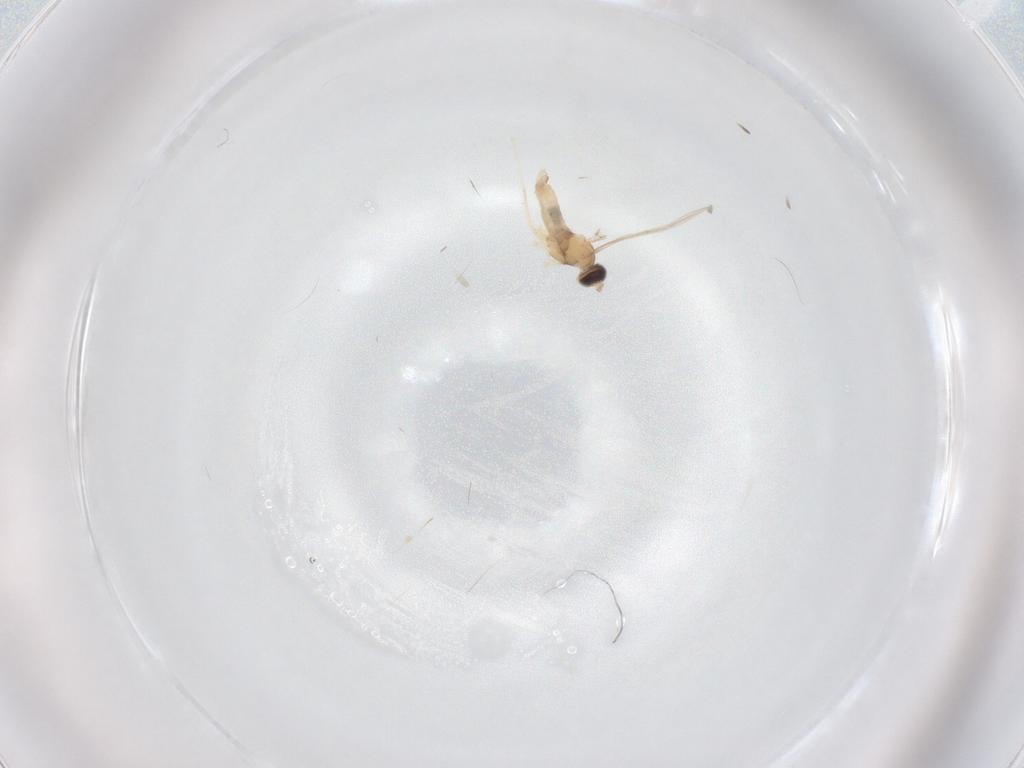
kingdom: Animalia
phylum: Arthropoda
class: Insecta
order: Diptera
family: Cecidomyiidae
